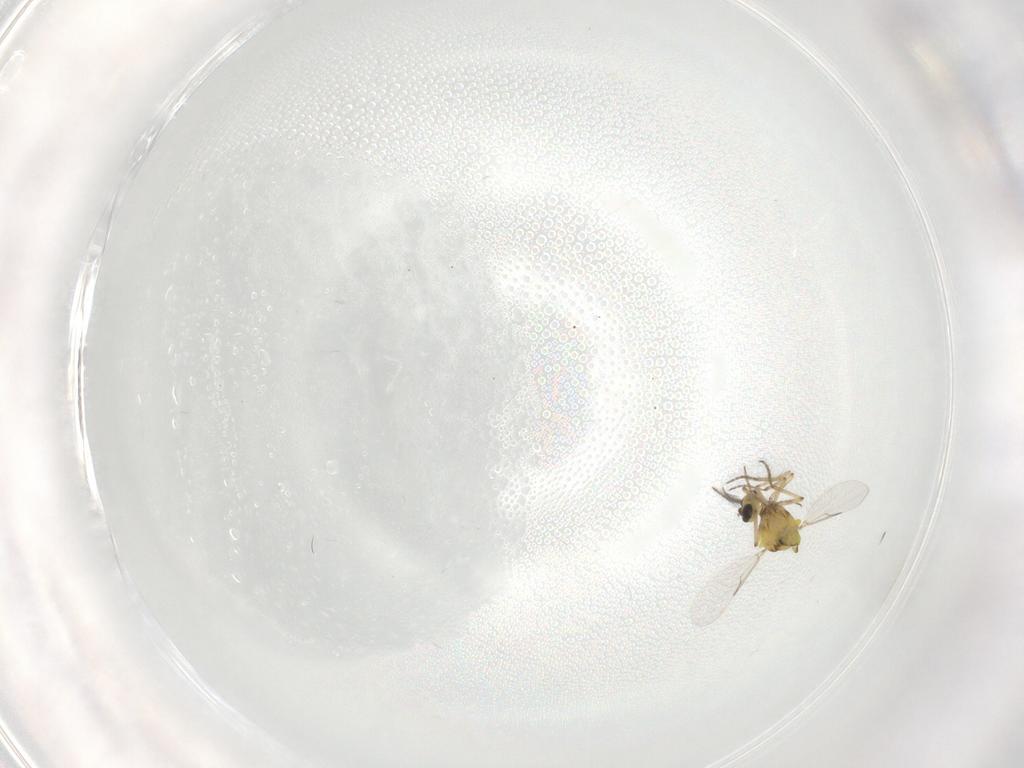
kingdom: Animalia
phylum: Arthropoda
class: Insecta
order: Diptera
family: Ceratopogonidae
